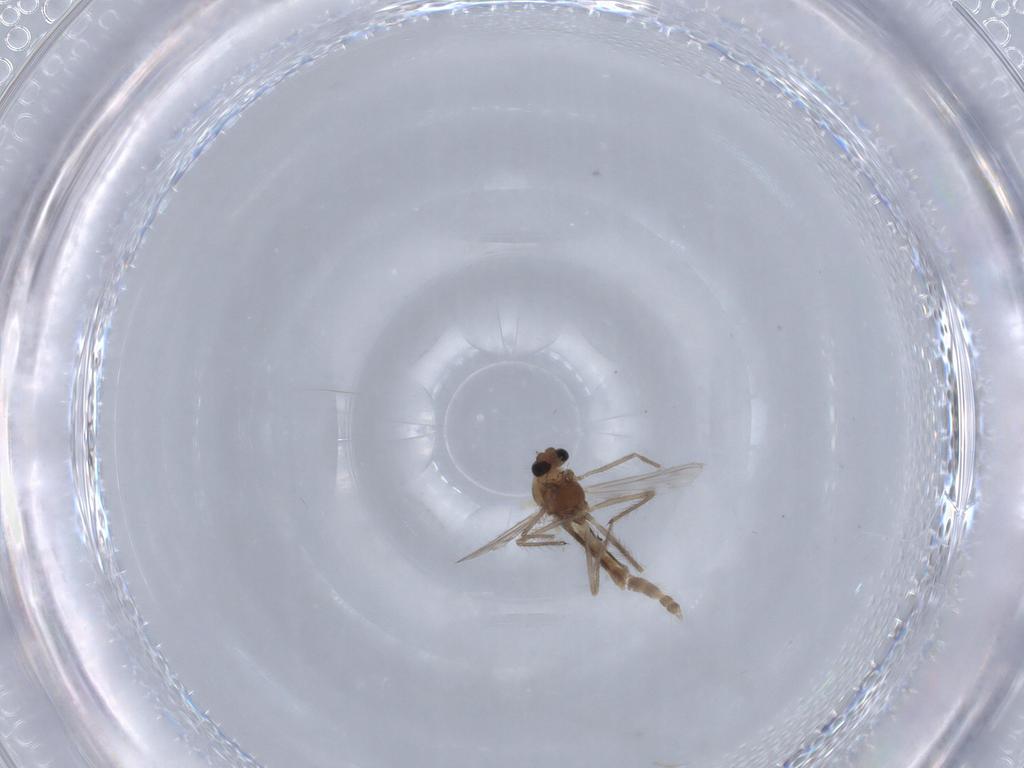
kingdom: Animalia
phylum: Arthropoda
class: Insecta
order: Diptera
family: Chironomidae
